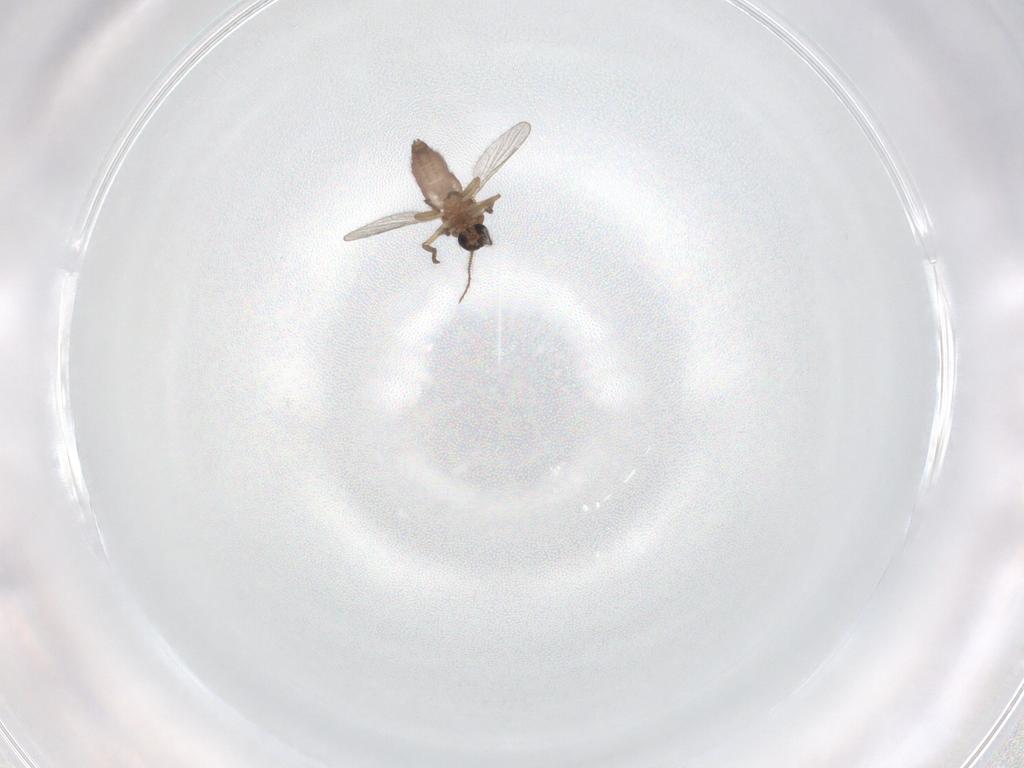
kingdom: Animalia
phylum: Arthropoda
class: Insecta
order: Diptera
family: Ceratopogonidae
